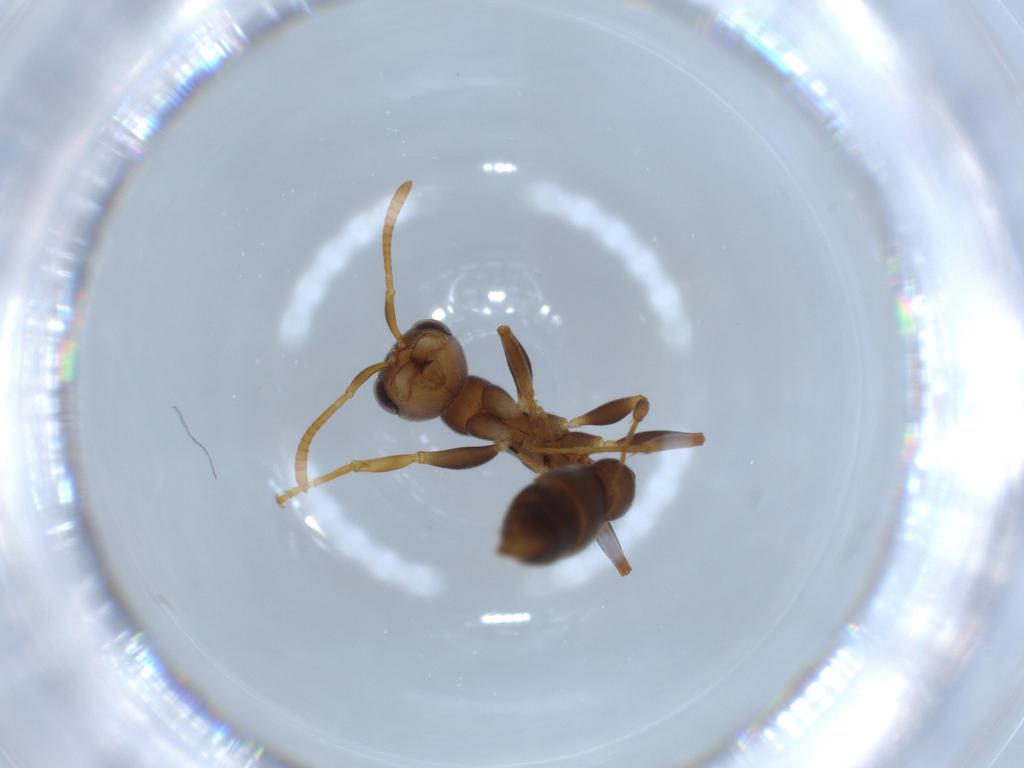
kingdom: Animalia
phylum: Arthropoda
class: Insecta
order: Hymenoptera
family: Formicidae
